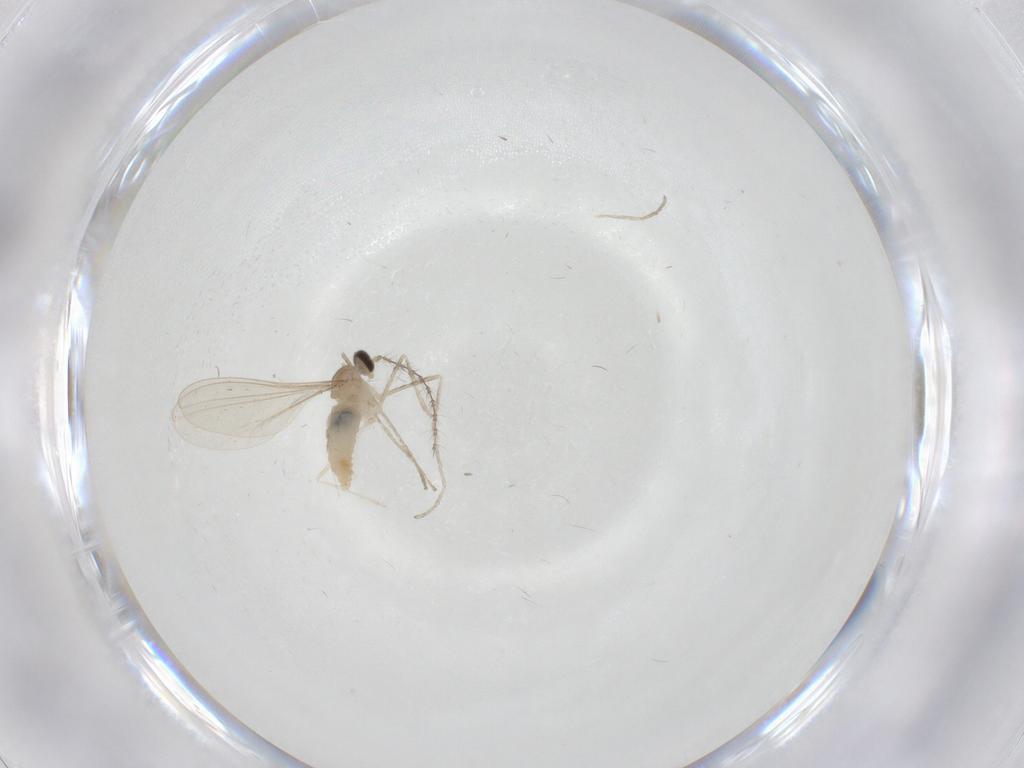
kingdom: Animalia
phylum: Arthropoda
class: Insecta
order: Diptera
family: Cecidomyiidae
